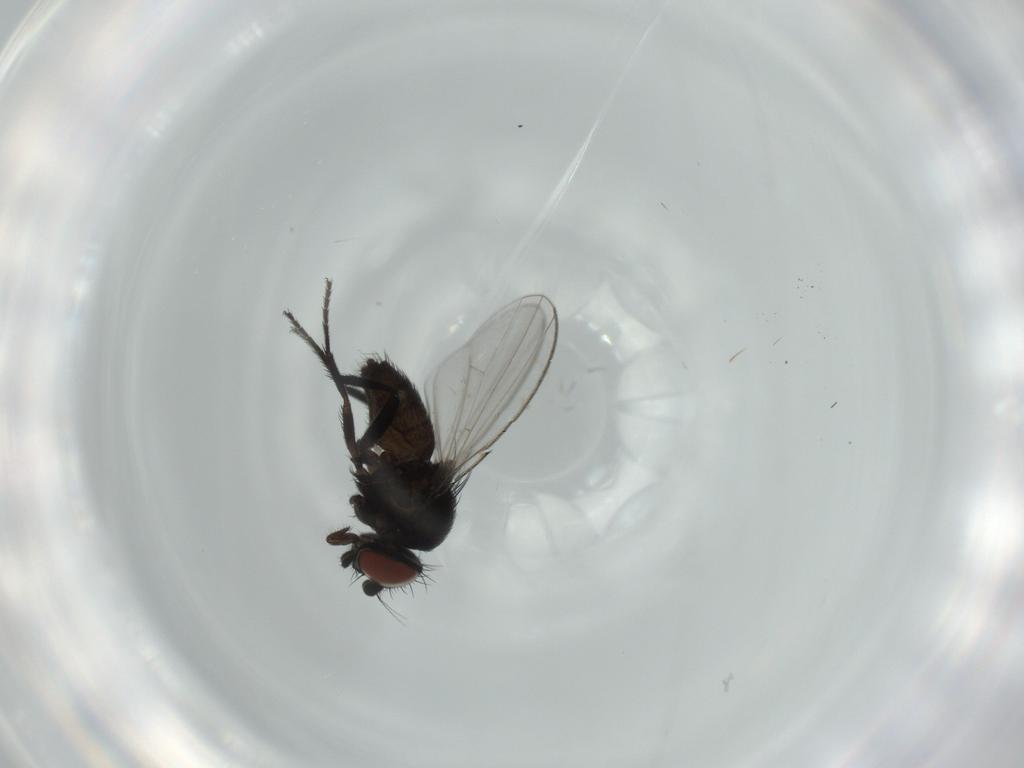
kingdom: Animalia
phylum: Arthropoda
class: Insecta
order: Diptera
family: Milichiidae
